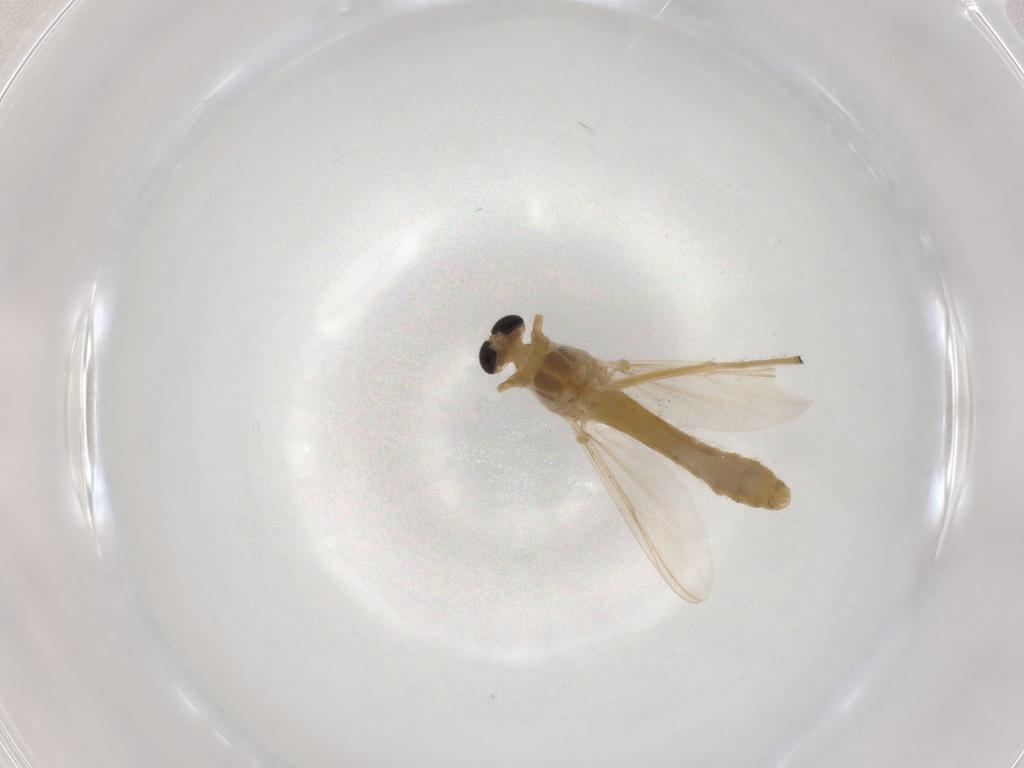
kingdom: Animalia
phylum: Arthropoda
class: Insecta
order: Diptera
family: Chironomidae
